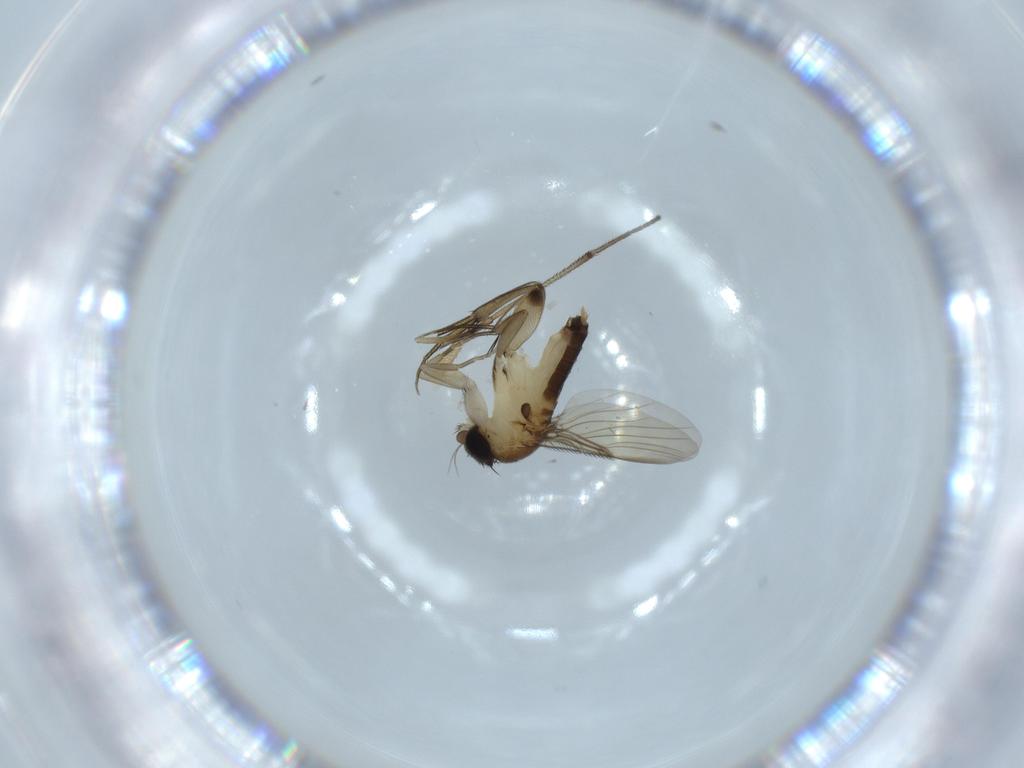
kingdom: Animalia
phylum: Arthropoda
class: Insecta
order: Diptera
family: Phoridae
